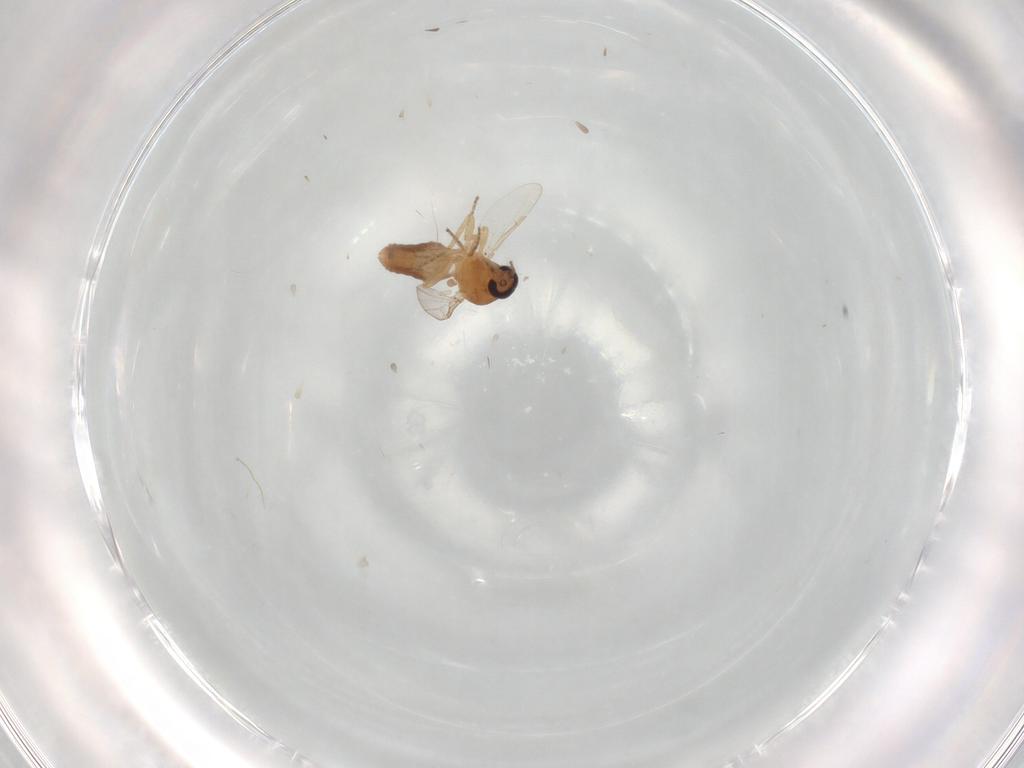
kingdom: Animalia
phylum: Arthropoda
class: Insecta
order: Diptera
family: Ceratopogonidae
